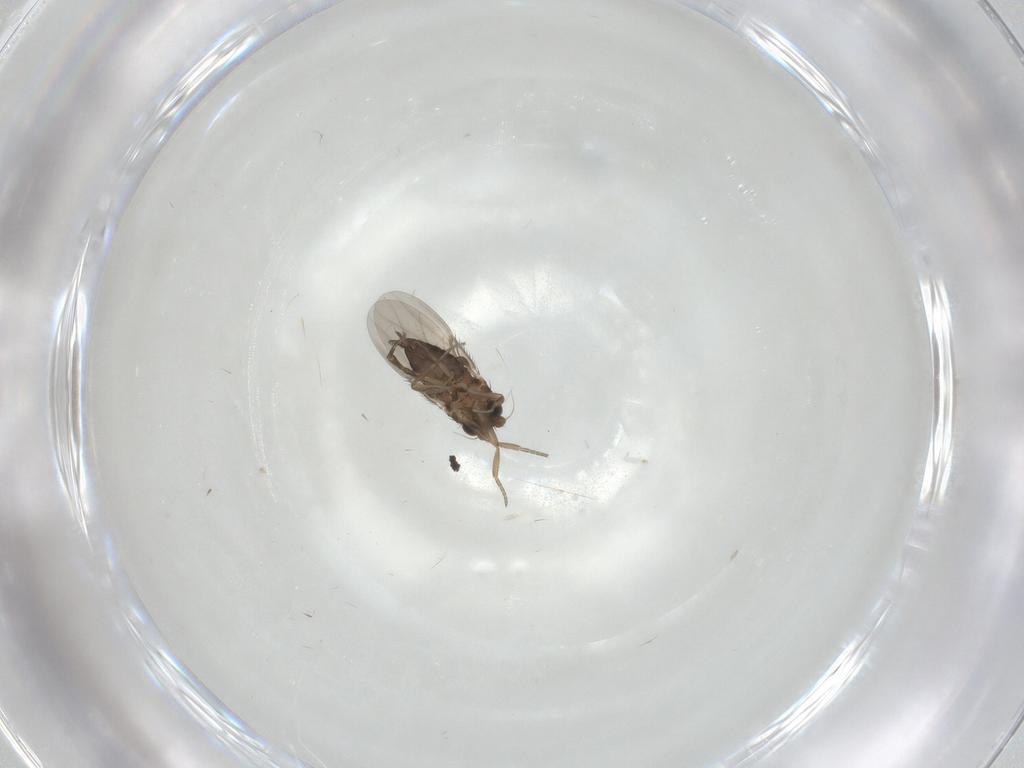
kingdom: Animalia
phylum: Arthropoda
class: Insecta
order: Diptera
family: Phoridae
